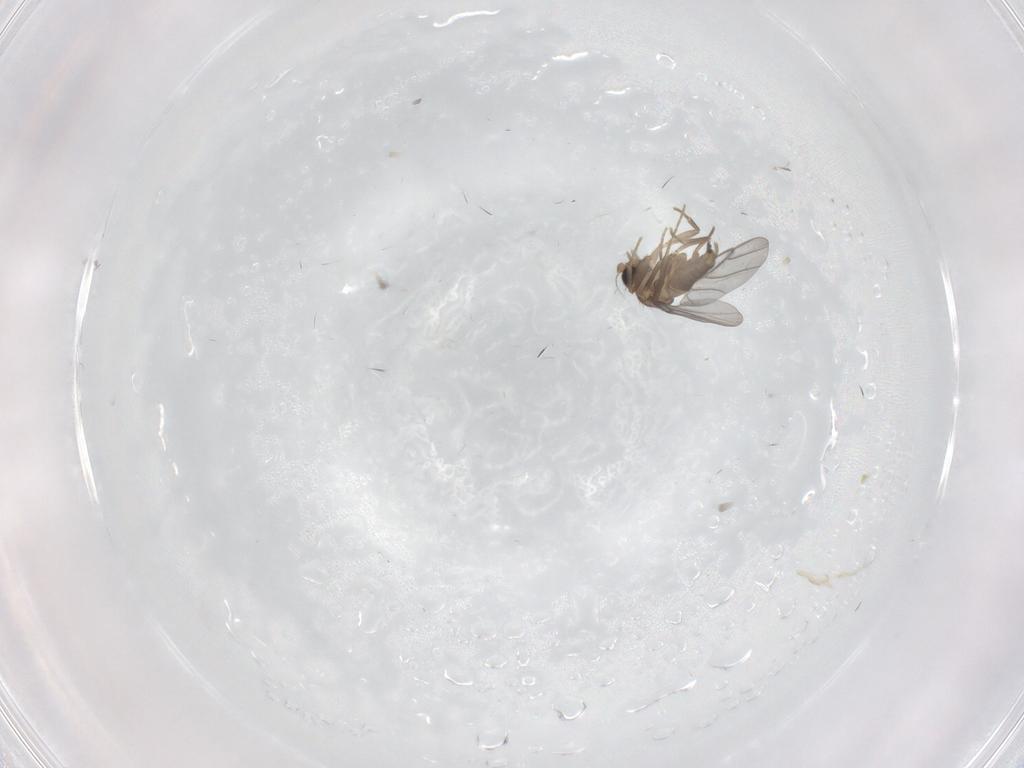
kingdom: Animalia
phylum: Arthropoda
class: Insecta
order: Diptera
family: Cecidomyiidae
